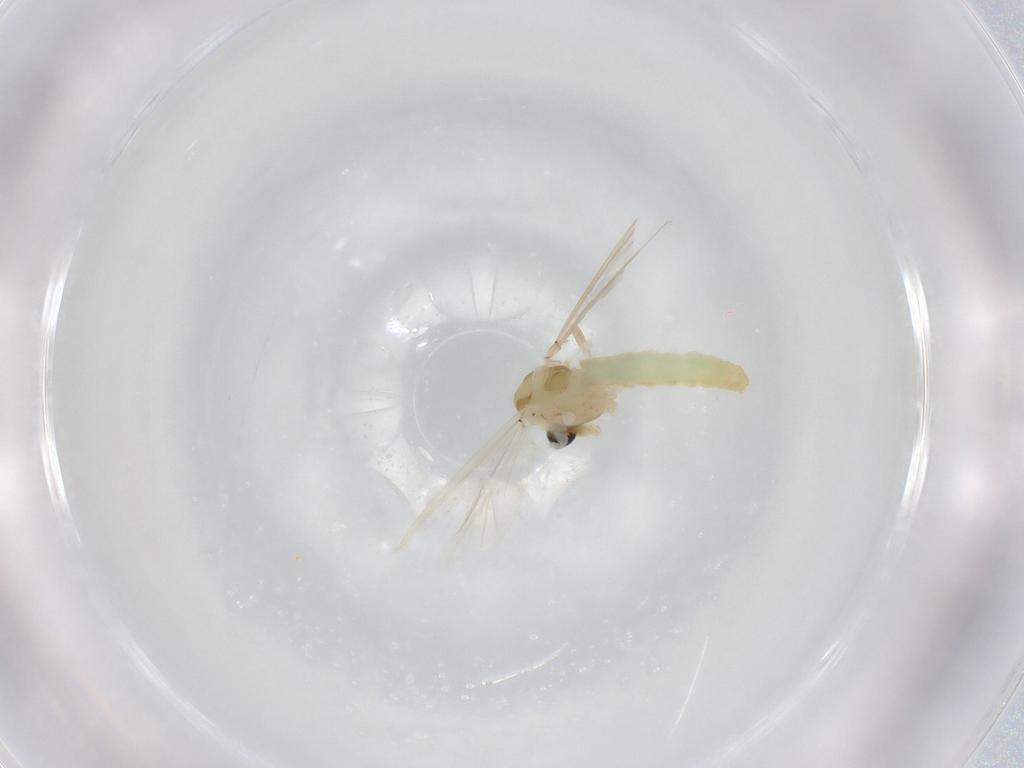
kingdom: Animalia
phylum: Arthropoda
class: Insecta
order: Diptera
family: Chironomidae
